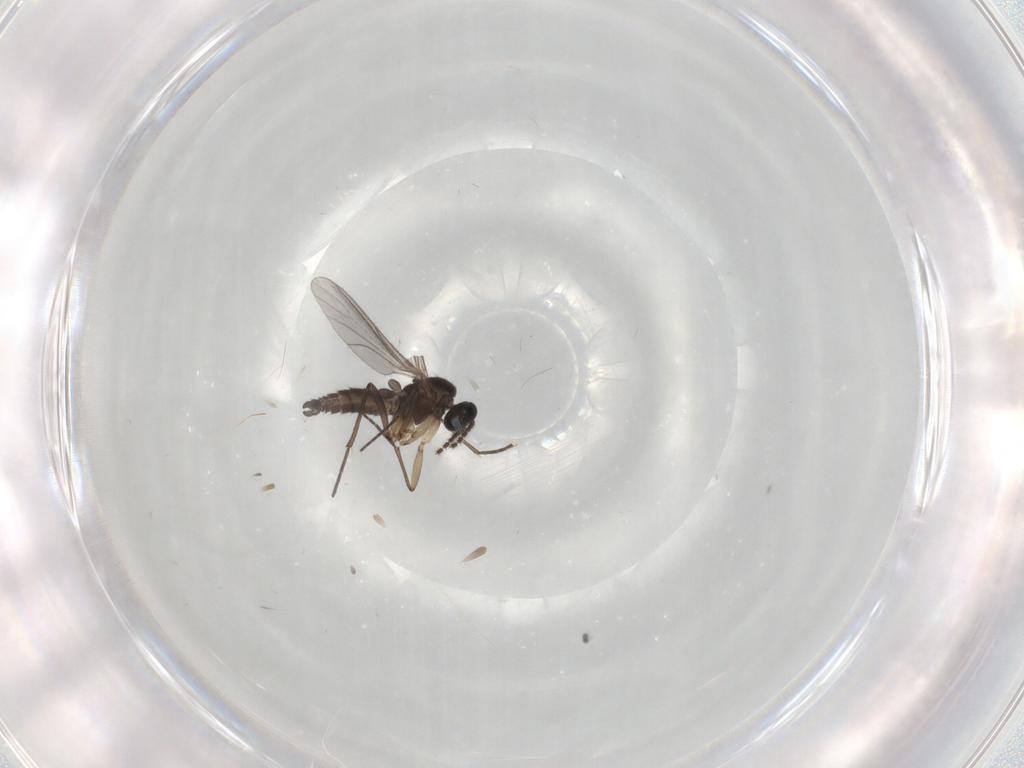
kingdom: Animalia
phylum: Arthropoda
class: Insecta
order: Diptera
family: Sciaridae
